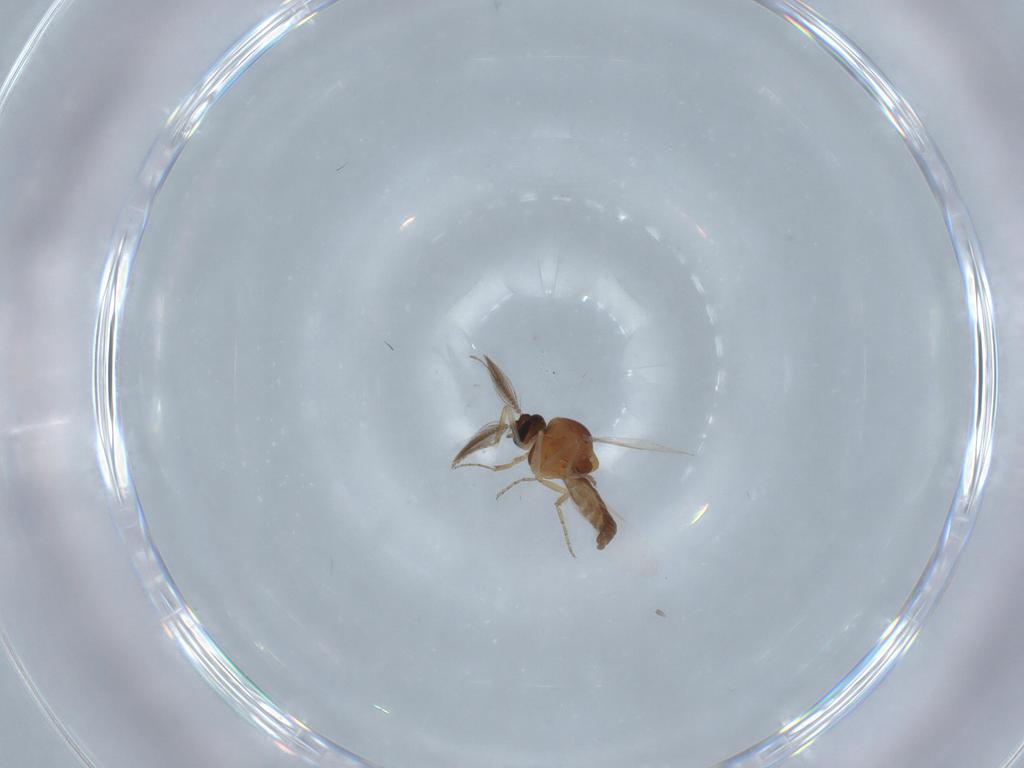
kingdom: Animalia
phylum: Arthropoda
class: Insecta
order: Diptera
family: Ceratopogonidae
